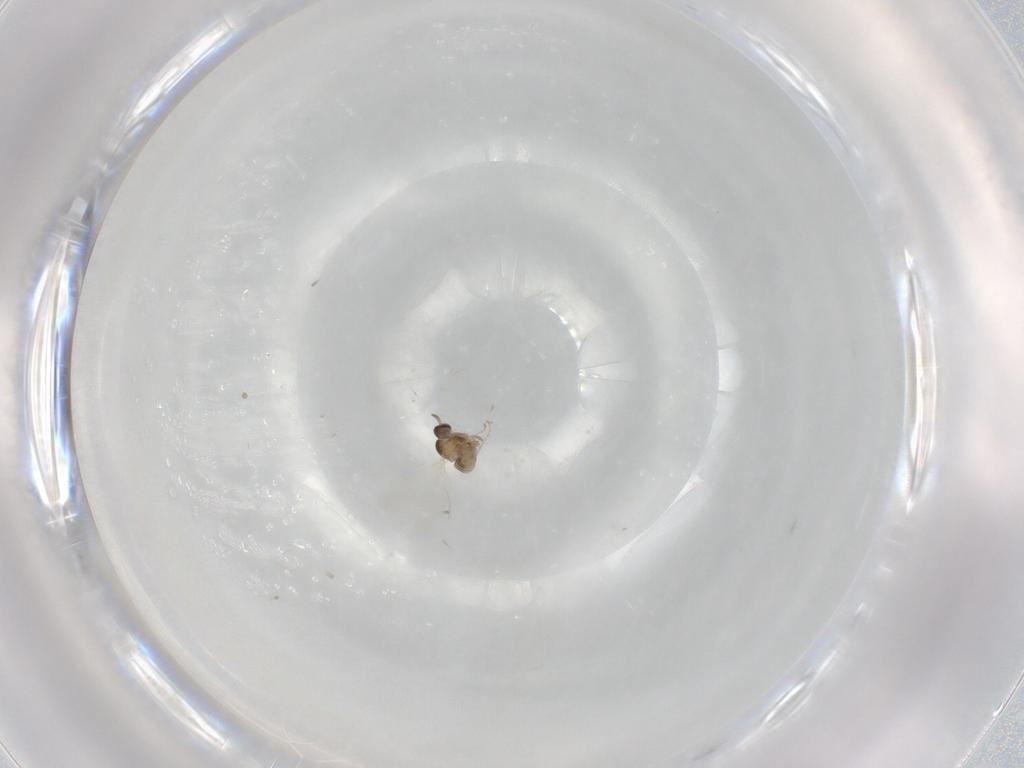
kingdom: Animalia
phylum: Arthropoda
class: Insecta
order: Diptera
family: Cecidomyiidae
